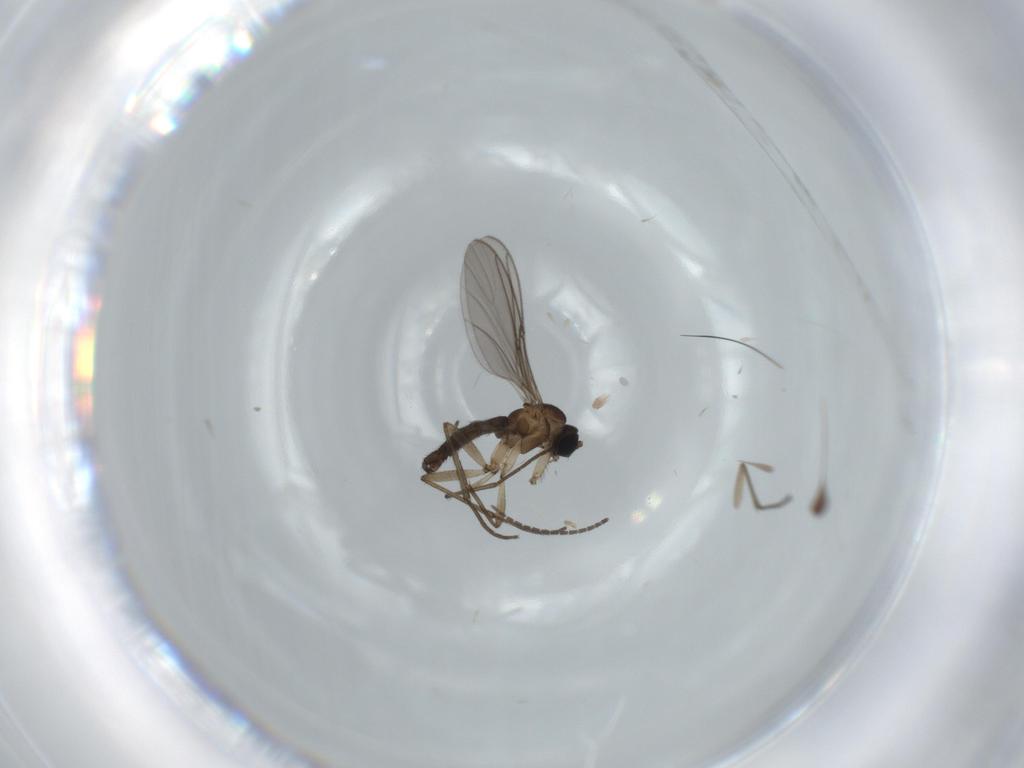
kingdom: Animalia
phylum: Arthropoda
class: Insecta
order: Diptera
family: Sciaridae
